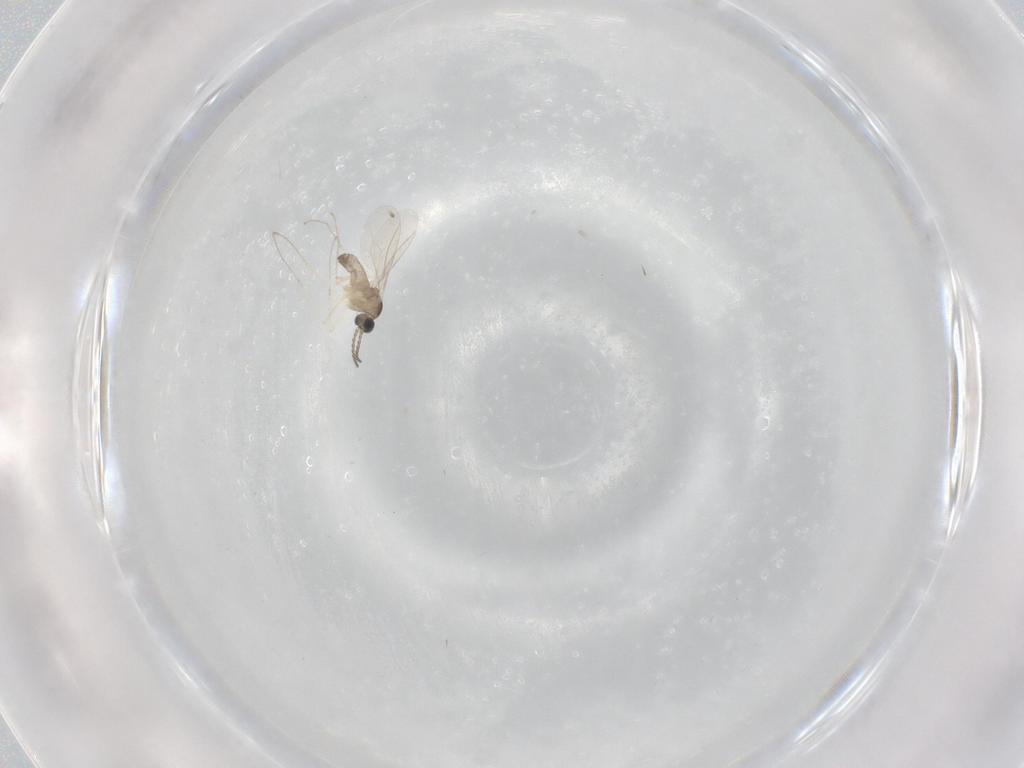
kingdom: Animalia
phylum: Arthropoda
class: Insecta
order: Diptera
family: Cecidomyiidae
